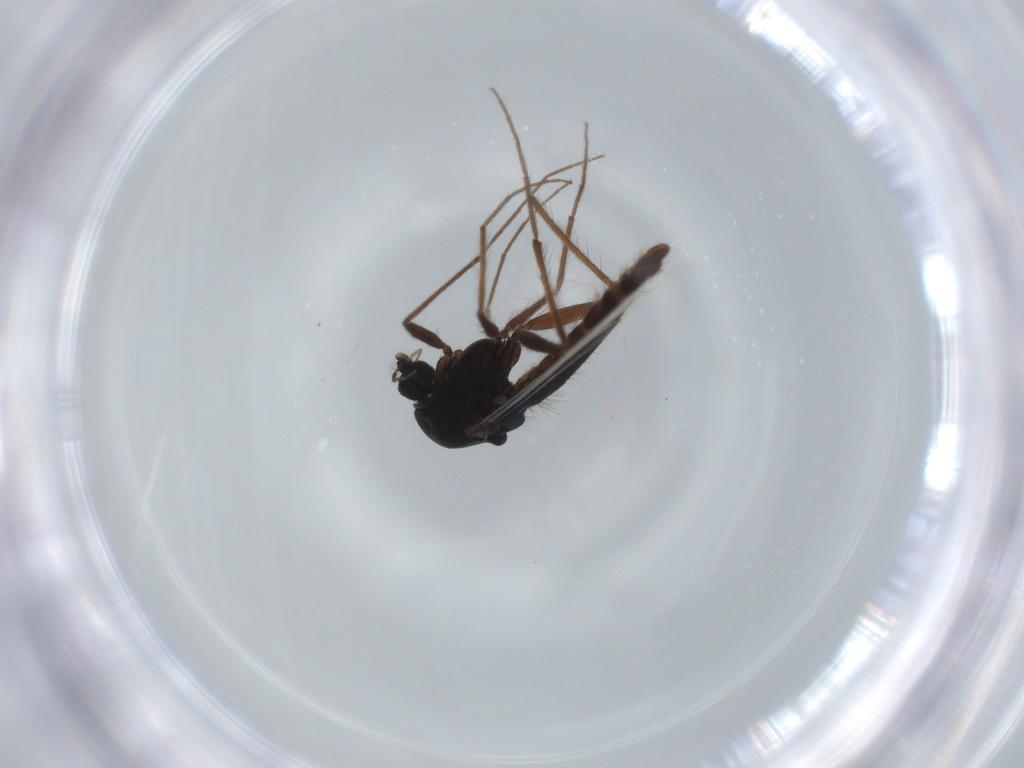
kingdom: Animalia
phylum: Arthropoda
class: Insecta
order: Diptera
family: Chironomidae
